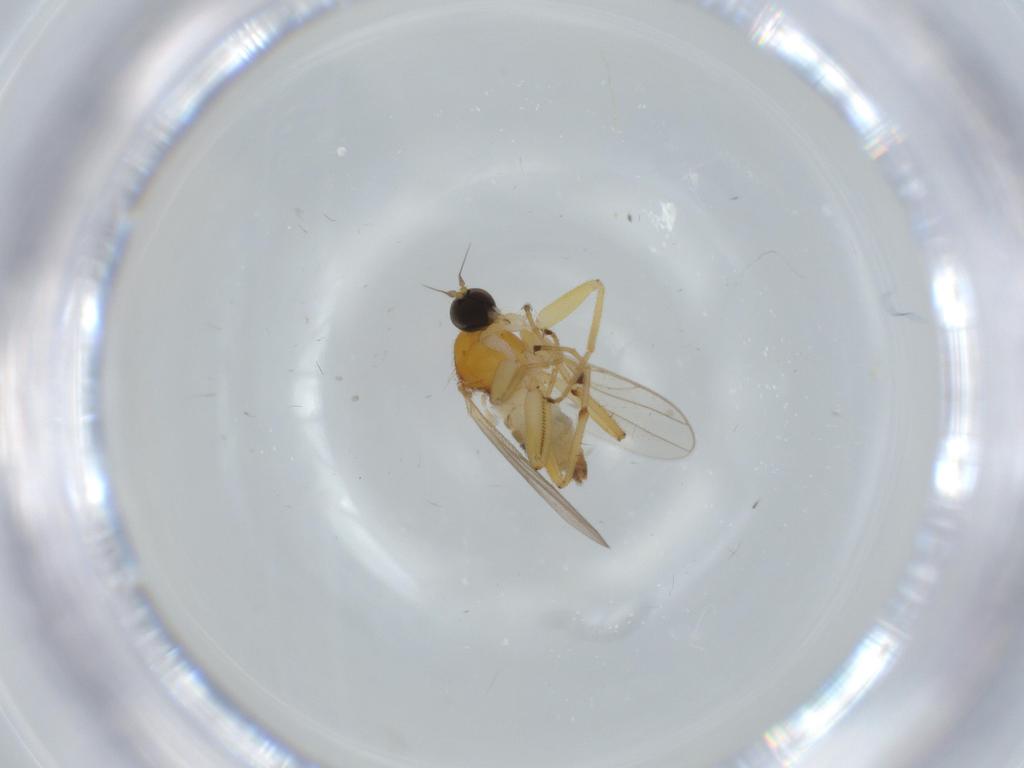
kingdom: Animalia
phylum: Arthropoda
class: Insecta
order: Diptera
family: Hybotidae
